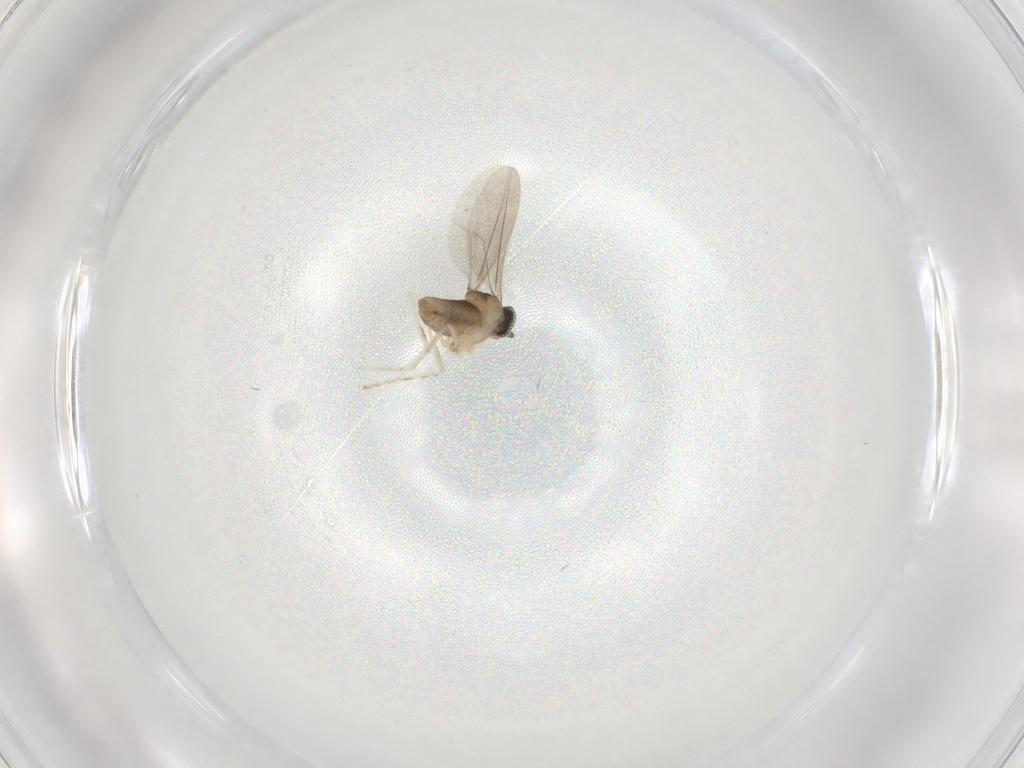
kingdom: Animalia
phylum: Arthropoda
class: Insecta
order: Diptera
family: Cecidomyiidae
